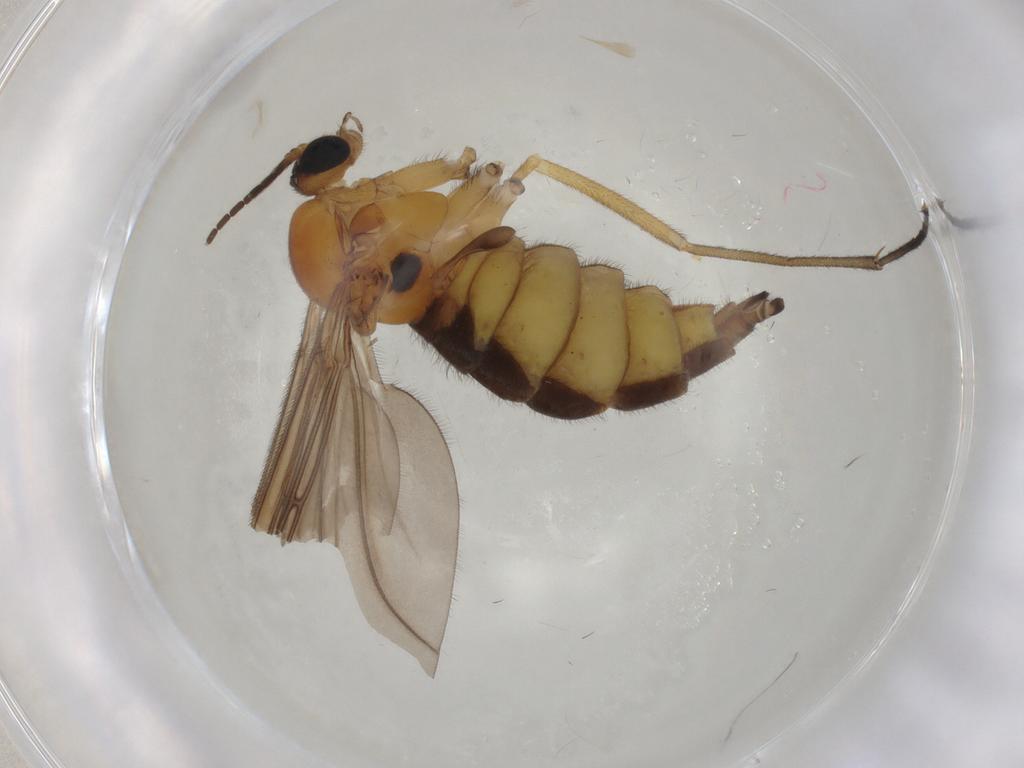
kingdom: Animalia
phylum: Arthropoda
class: Insecta
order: Diptera
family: Sciaridae
